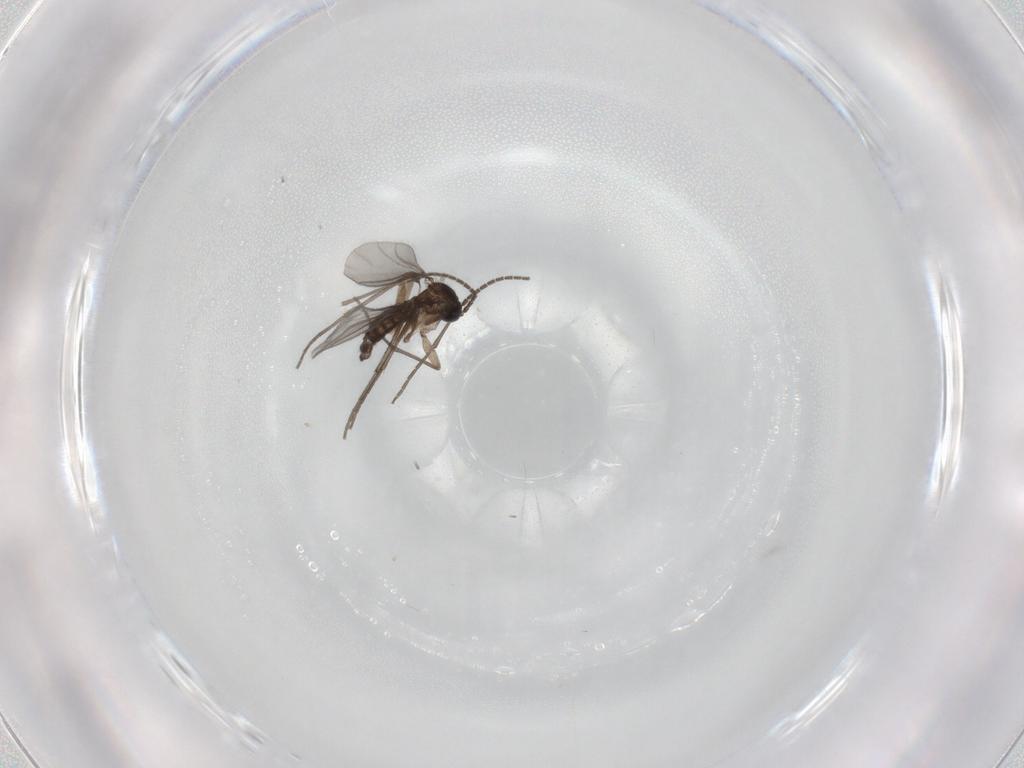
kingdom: Animalia
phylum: Arthropoda
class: Insecta
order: Diptera
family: Sciaridae
